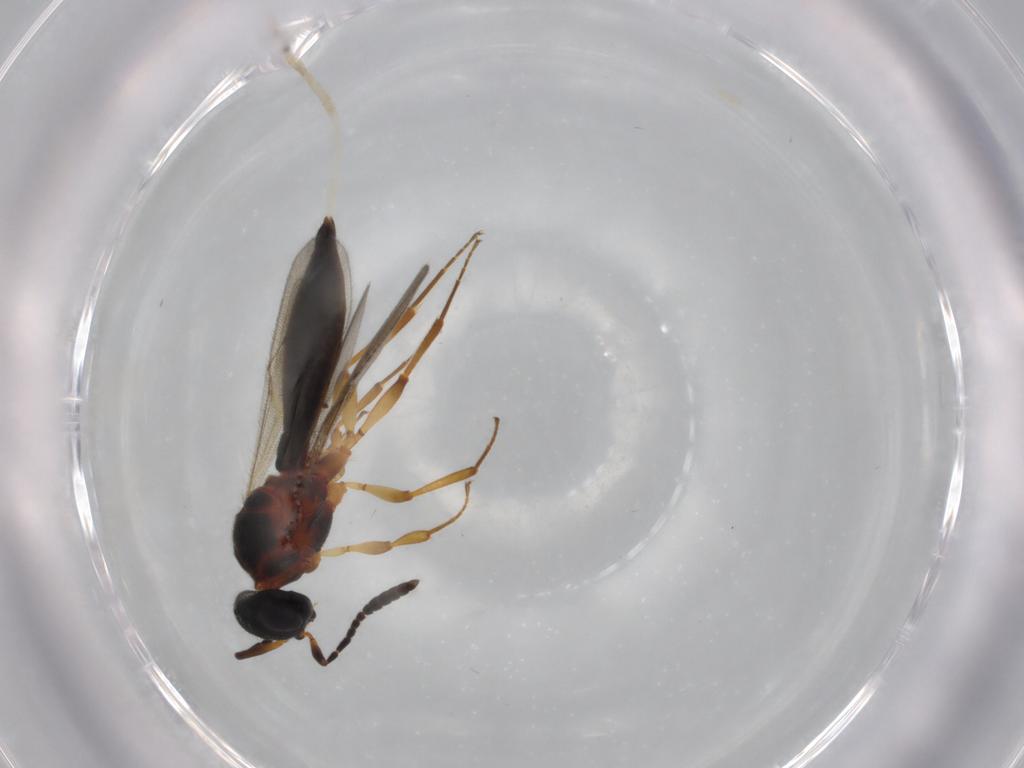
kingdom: Animalia
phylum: Arthropoda
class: Insecta
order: Hymenoptera
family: Scelionidae
